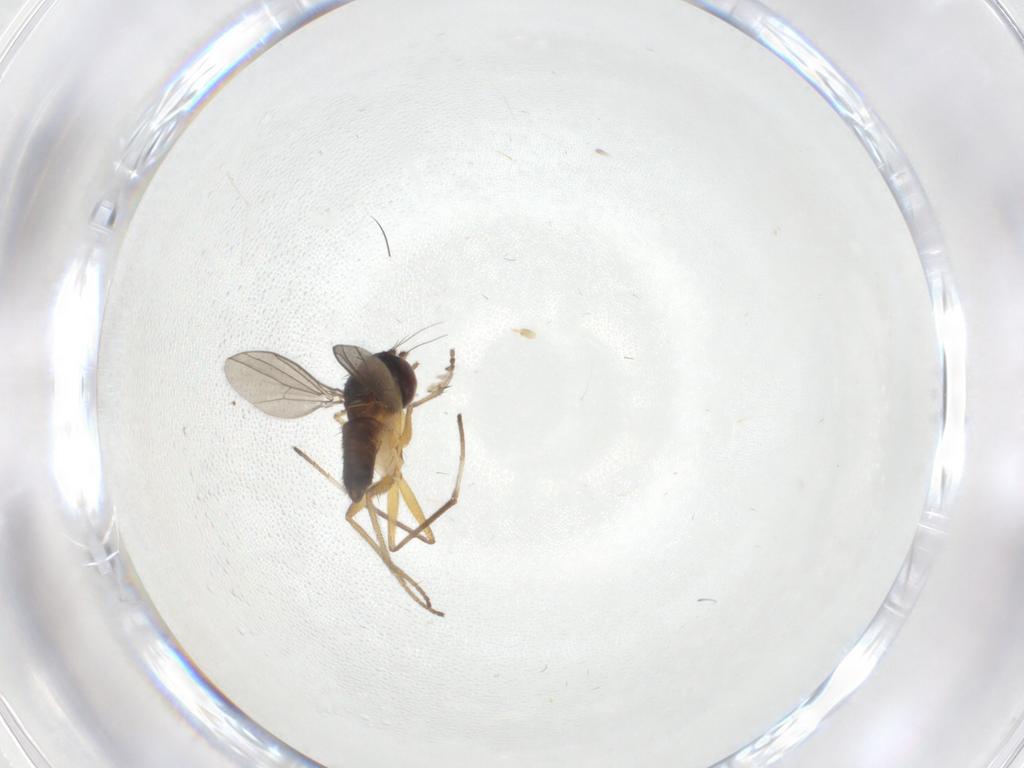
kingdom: Animalia
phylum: Arthropoda
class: Insecta
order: Diptera
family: Dolichopodidae
